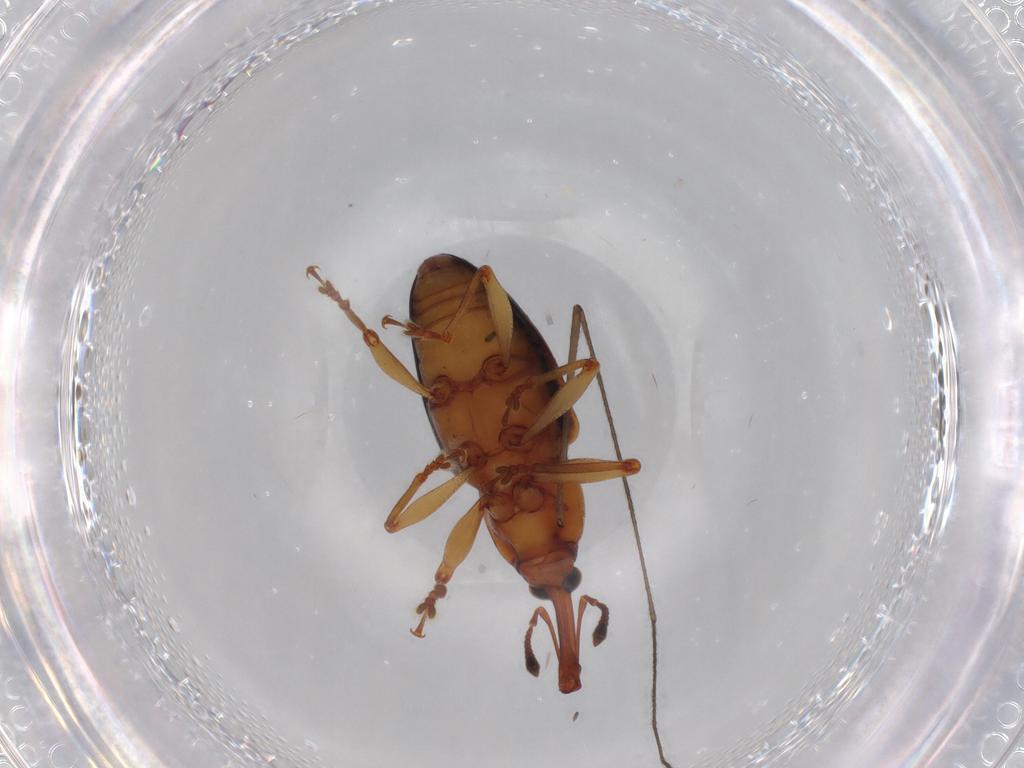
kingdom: Animalia
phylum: Arthropoda
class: Insecta
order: Coleoptera
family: Curculionidae
